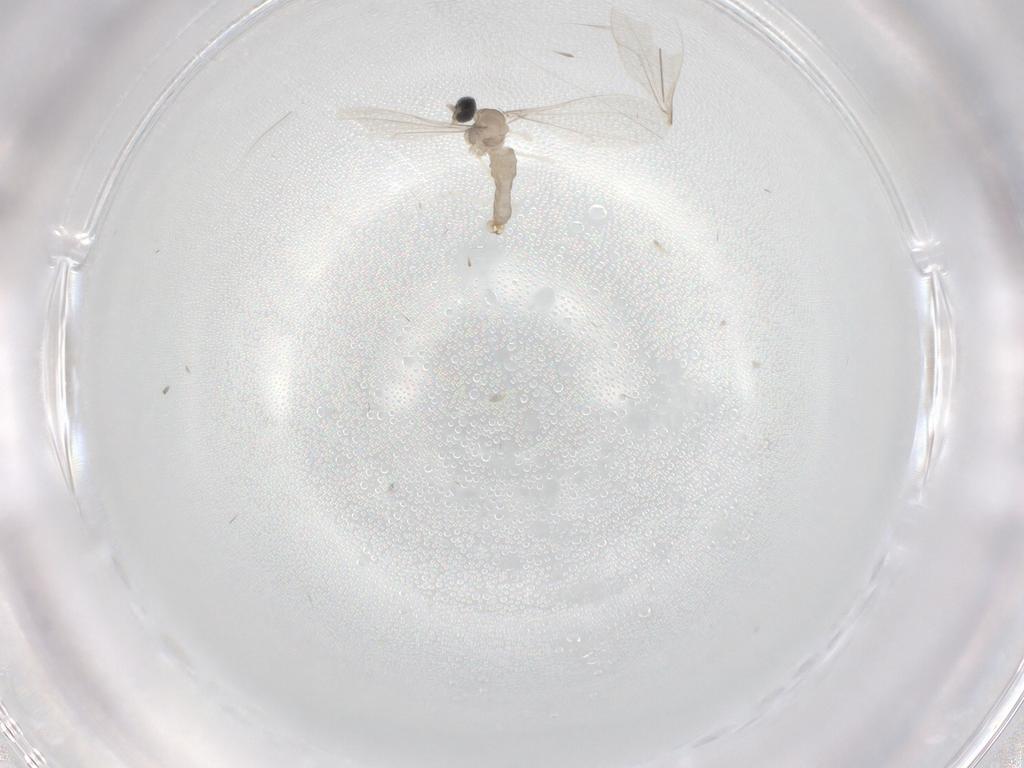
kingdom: Animalia
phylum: Arthropoda
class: Insecta
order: Diptera
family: Cecidomyiidae
